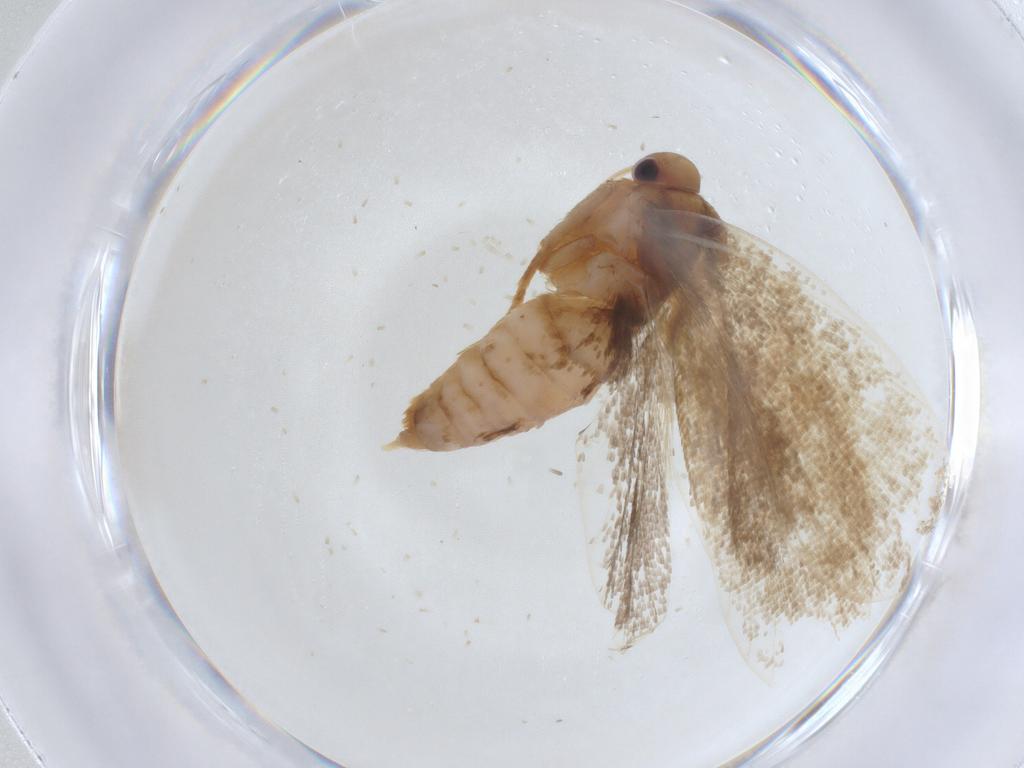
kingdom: Animalia
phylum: Arthropoda
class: Insecta
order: Lepidoptera
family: Depressariidae
